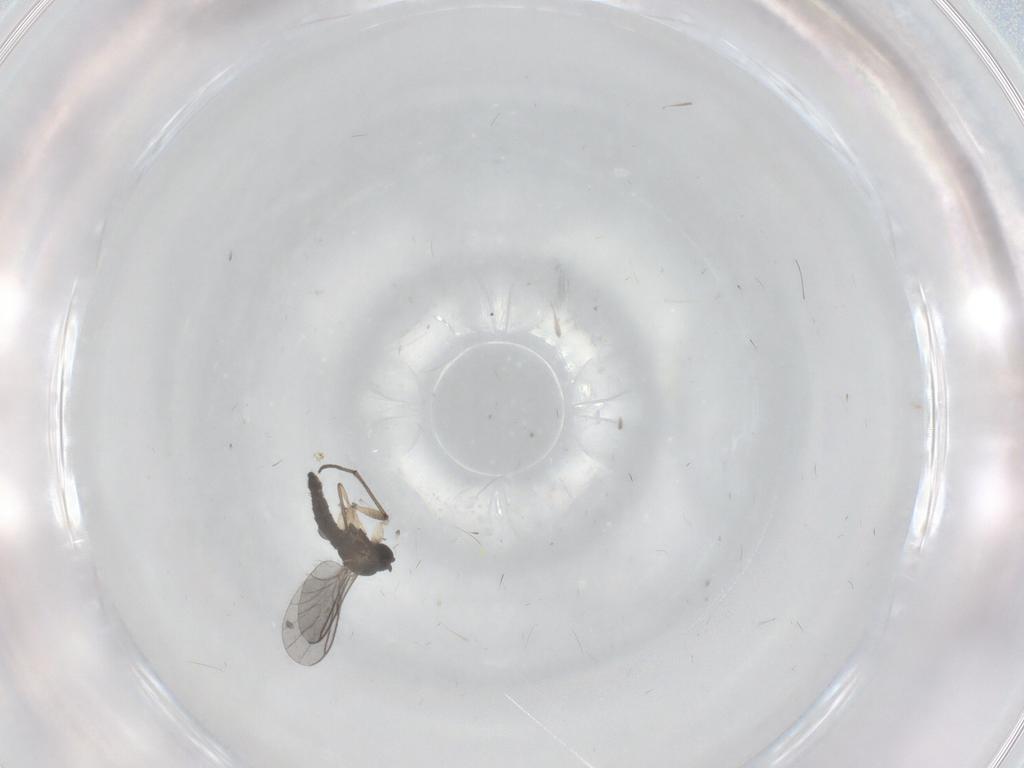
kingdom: Animalia
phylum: Arthropoda
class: Insecta
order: Diptera
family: Sciaridae
